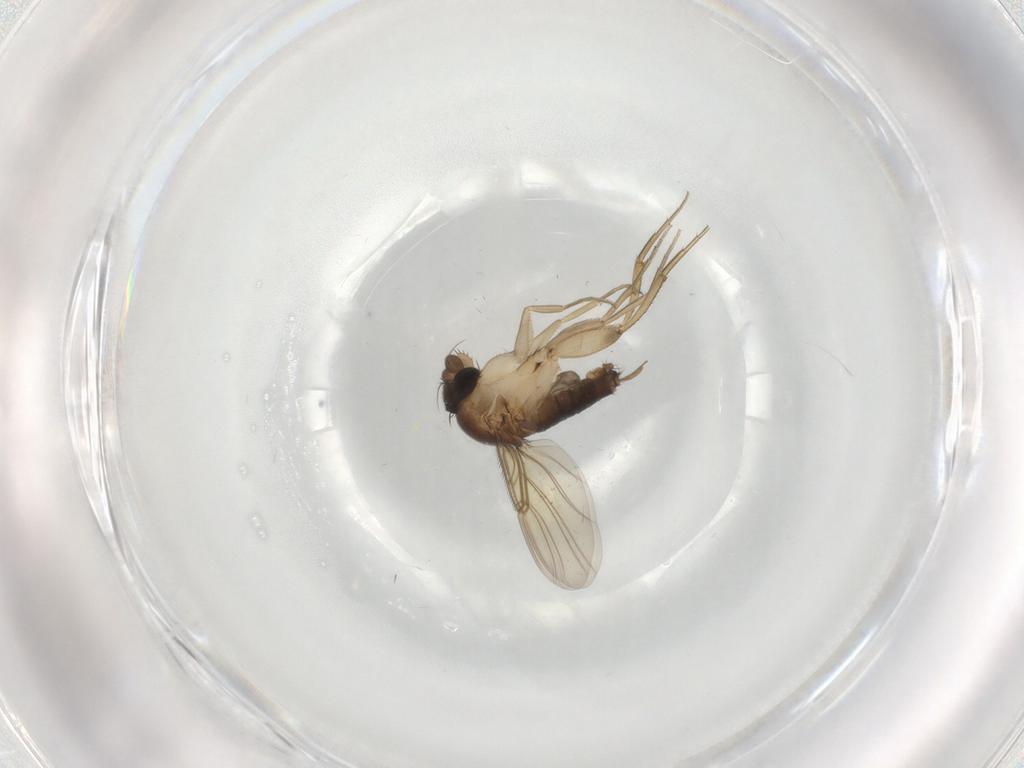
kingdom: Animalia
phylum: Arthropoda
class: Insecta
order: Diptera
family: Phoridae
